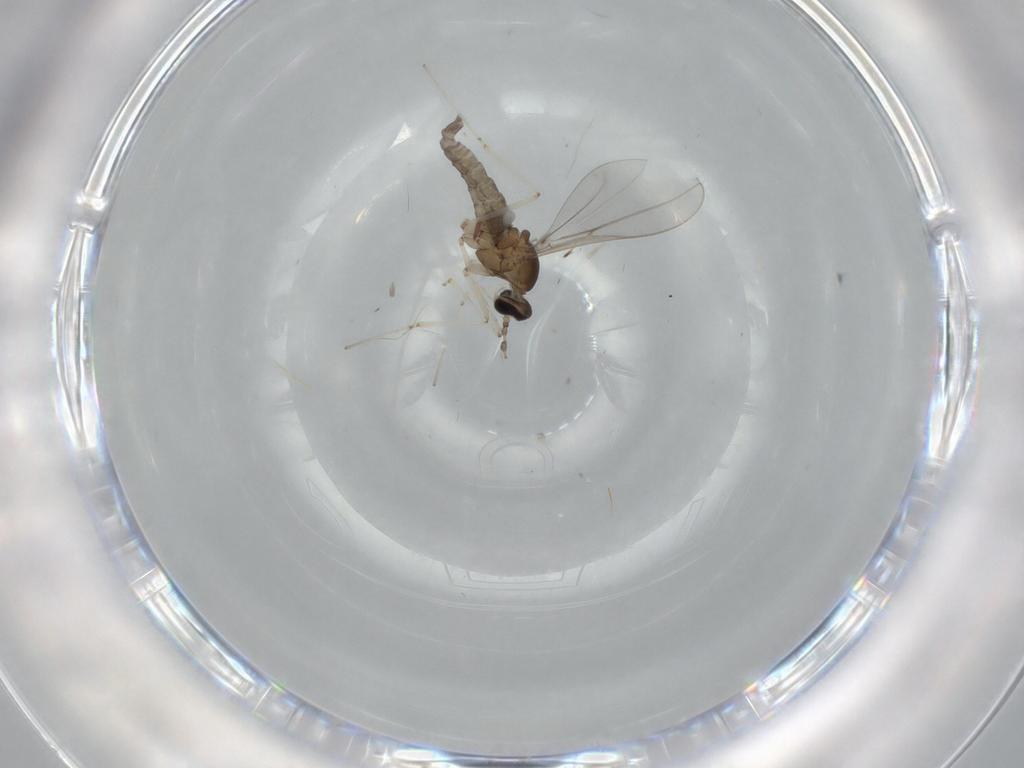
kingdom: Animalia
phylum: Arthropoda
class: Insecta
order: Diptera
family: Cecidomyiidae
